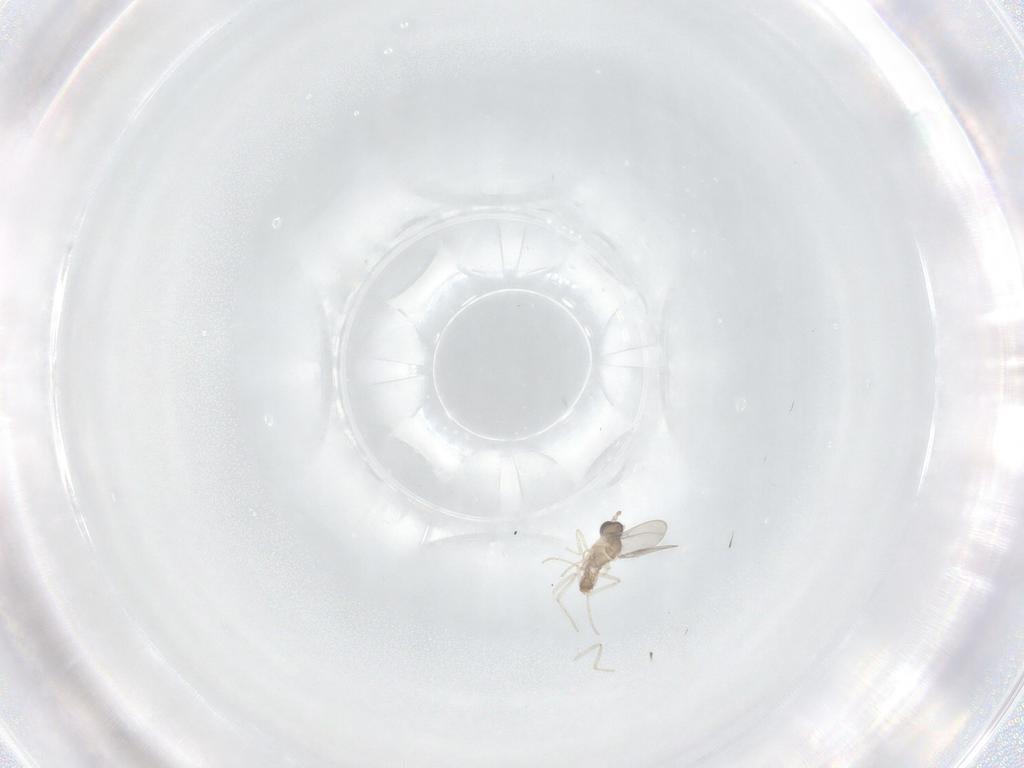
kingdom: Animalia
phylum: Arthropoda
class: Insecta
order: Diptera
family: Cecidomyiidae
